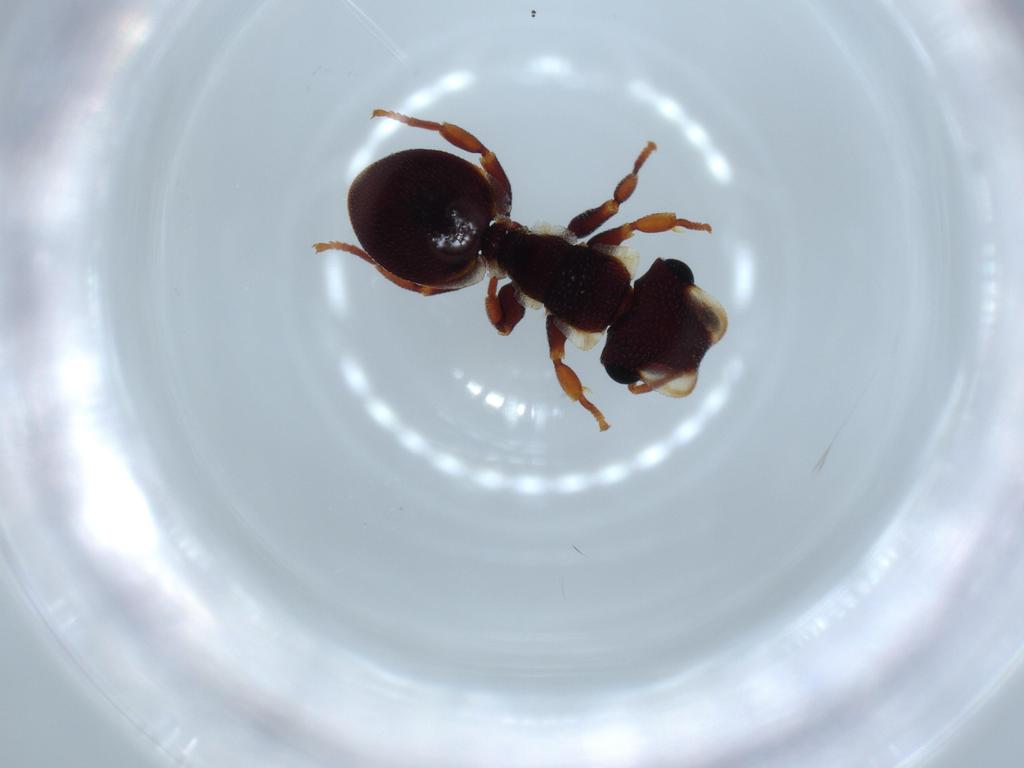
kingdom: Animalia
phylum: Arthropoda
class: Insecta
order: Hymenoptera
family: Formicidae
